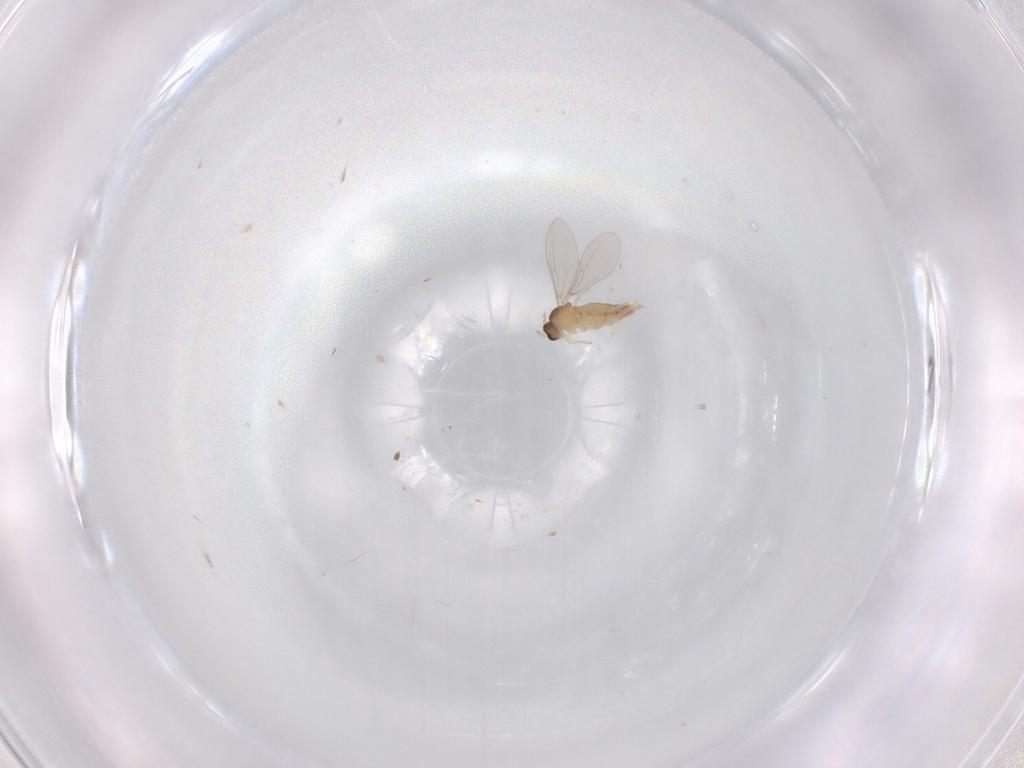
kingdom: Animalia
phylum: Arthropoda
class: Insecta
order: Diptera
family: Cecidomyiidae
